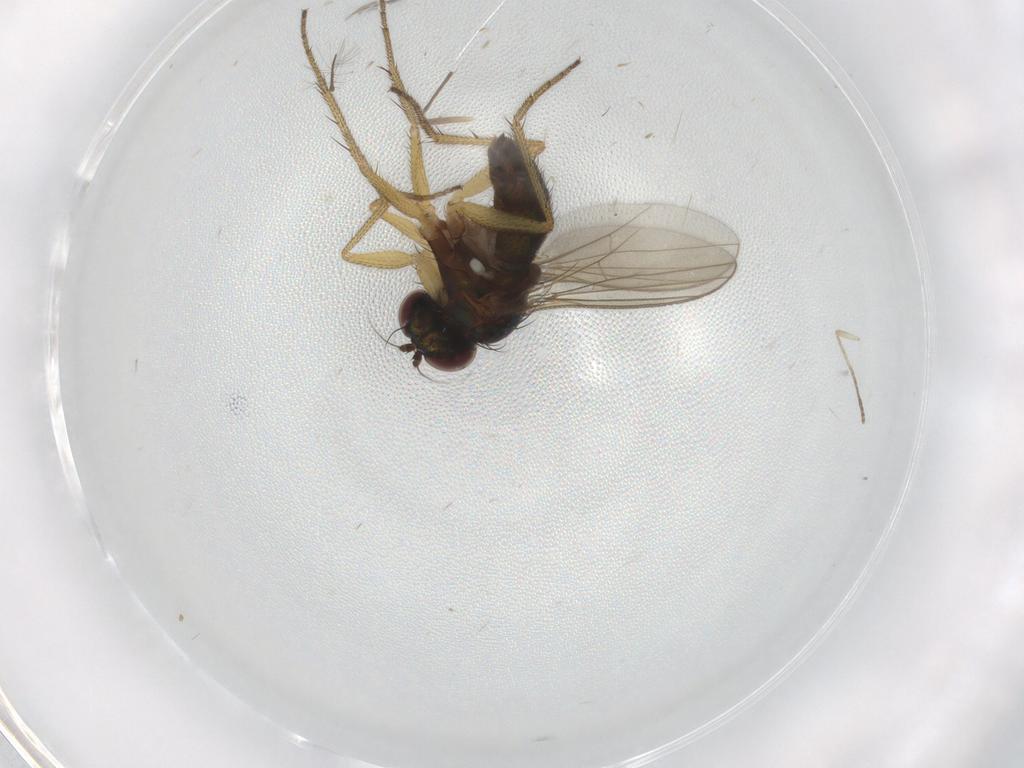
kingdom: Animalia
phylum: Arthropoda
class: Insecta
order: Diptera
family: Chironomidae
